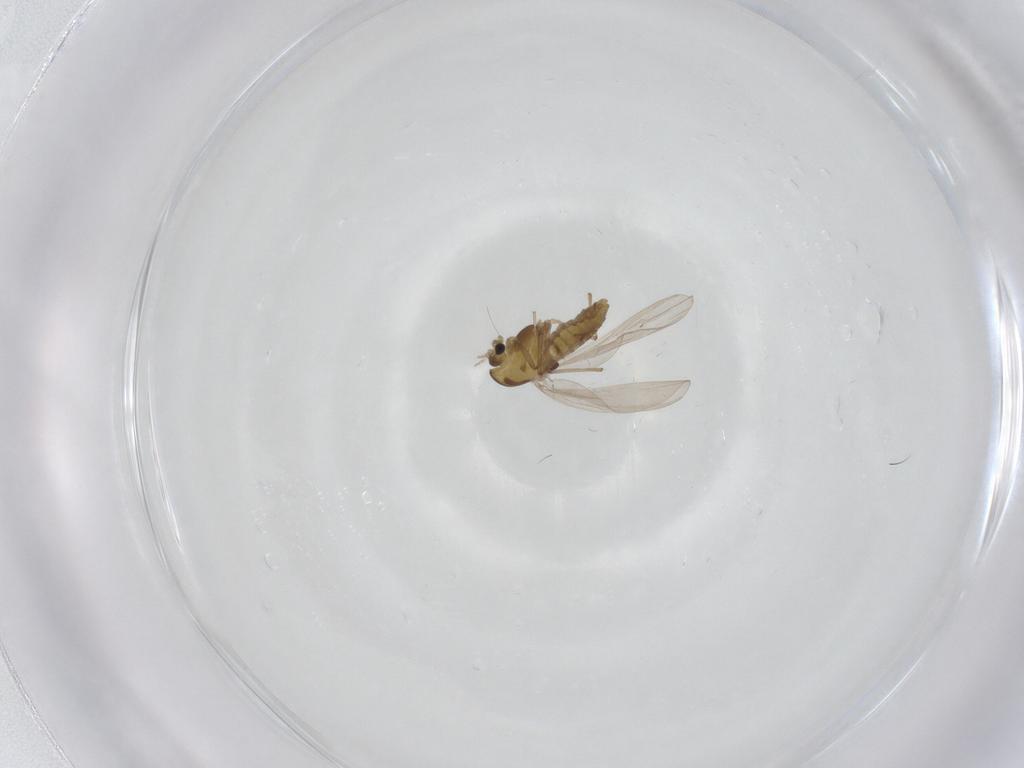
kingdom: Animalia
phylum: Arthropoda
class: Insecta
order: Diptera
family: Chironomidae
